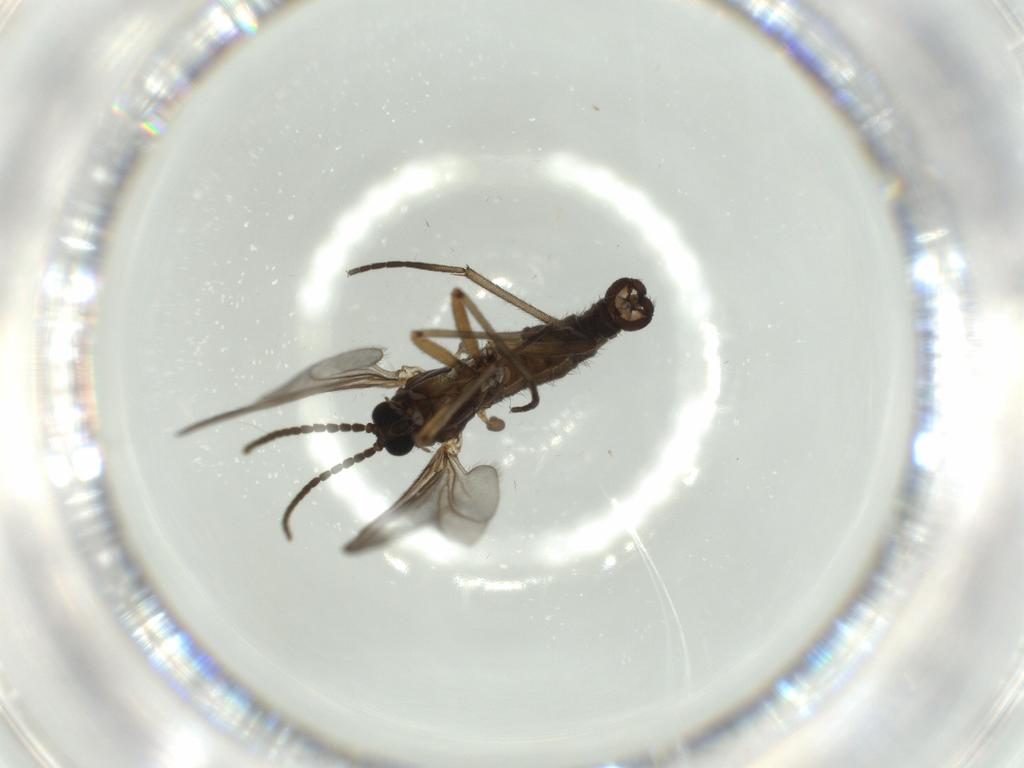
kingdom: Animalia
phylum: Arthropoda
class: Insecta
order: Diptera
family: Sciaridae
